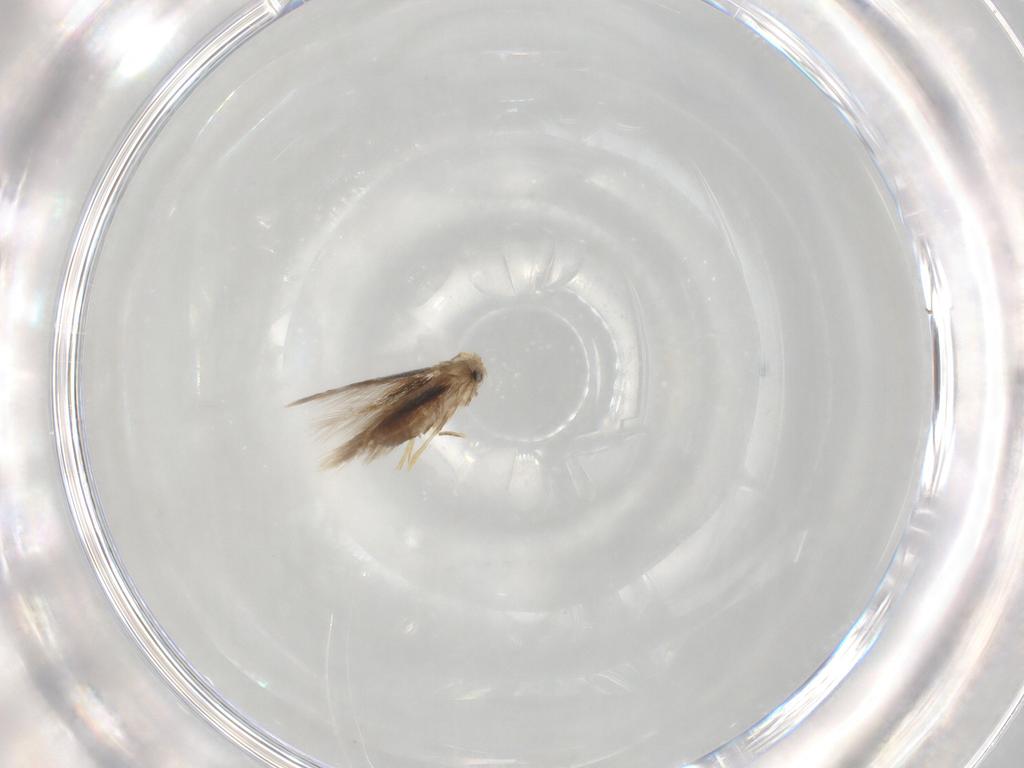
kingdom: Animalia
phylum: Arthropoda
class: Insecta
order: Lepidoptera
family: Nepticulidae
